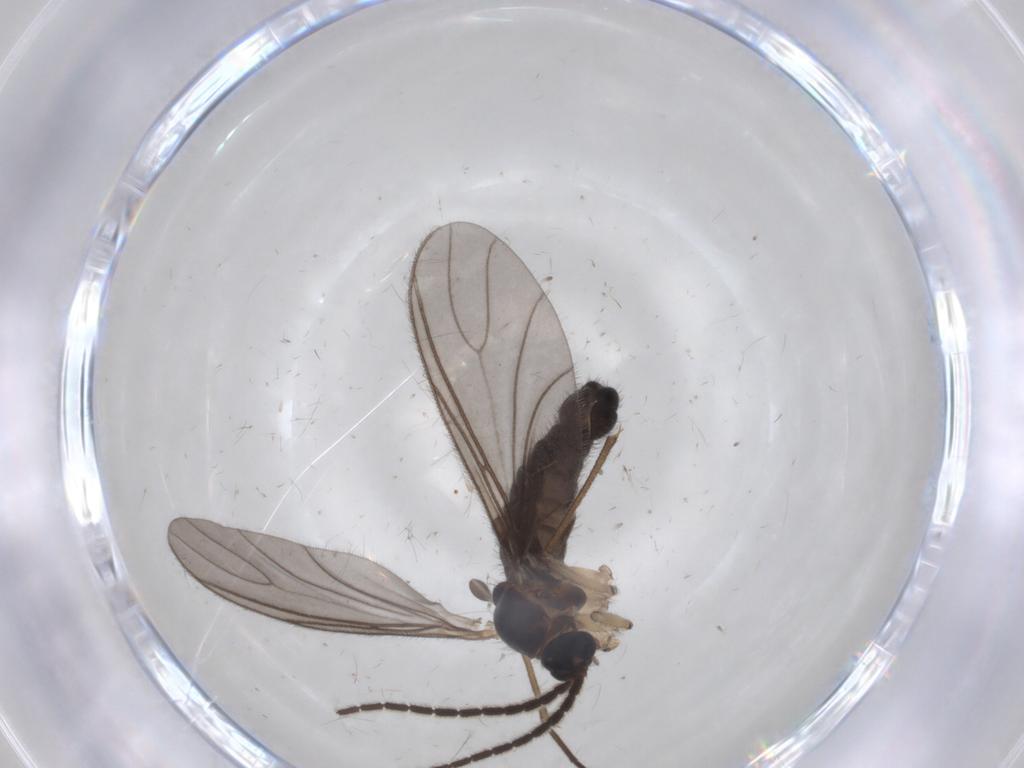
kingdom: Animalia
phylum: Arthropoda
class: Insecta
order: Diptera
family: Sciaridae
